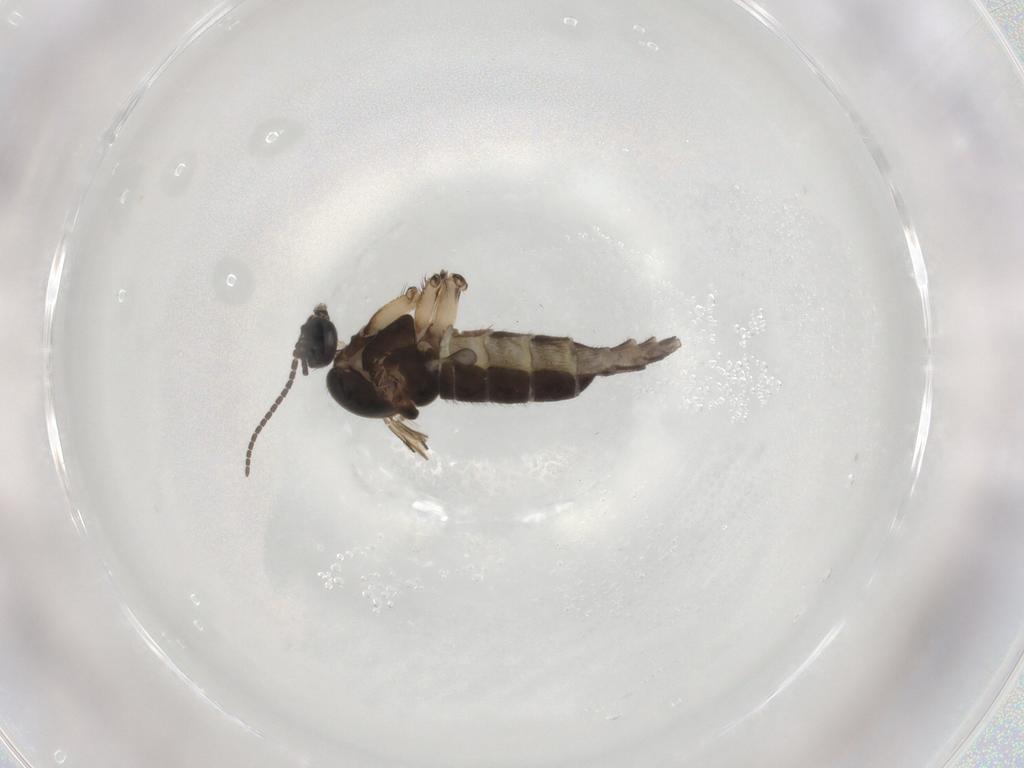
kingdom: Animalia
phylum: Arthropoda
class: Insecta
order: Diptera
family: Sciaridae
